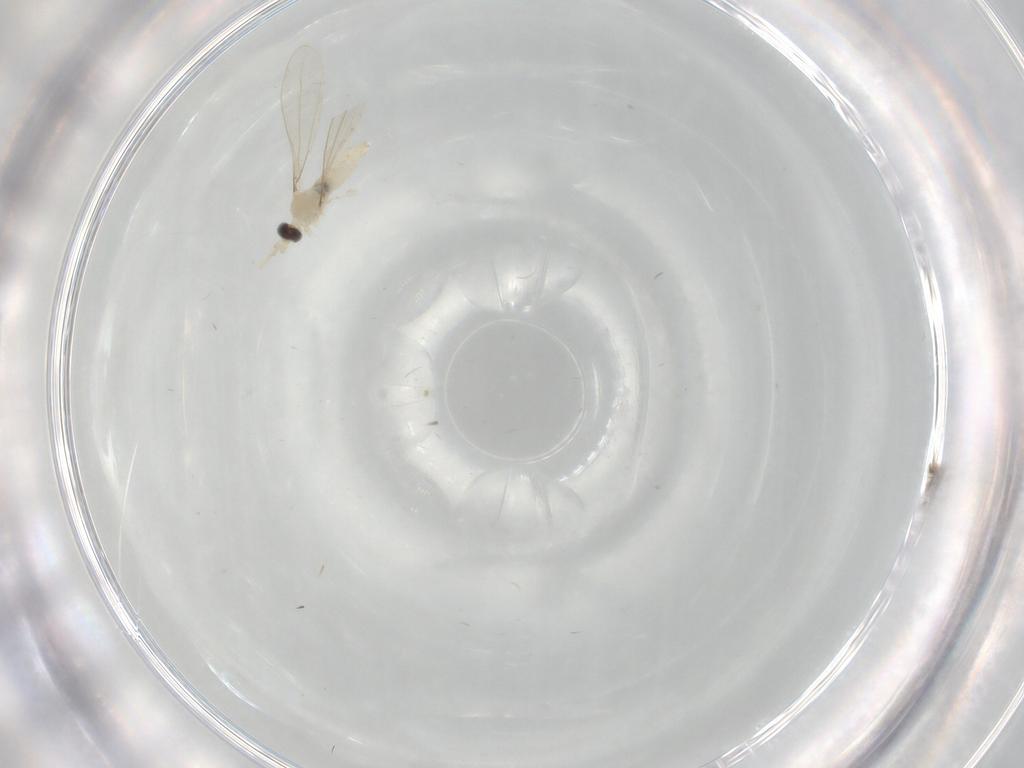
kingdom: Animalia
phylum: Arthropoda
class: Insecta
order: Diptera
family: Cecidomyiidae
